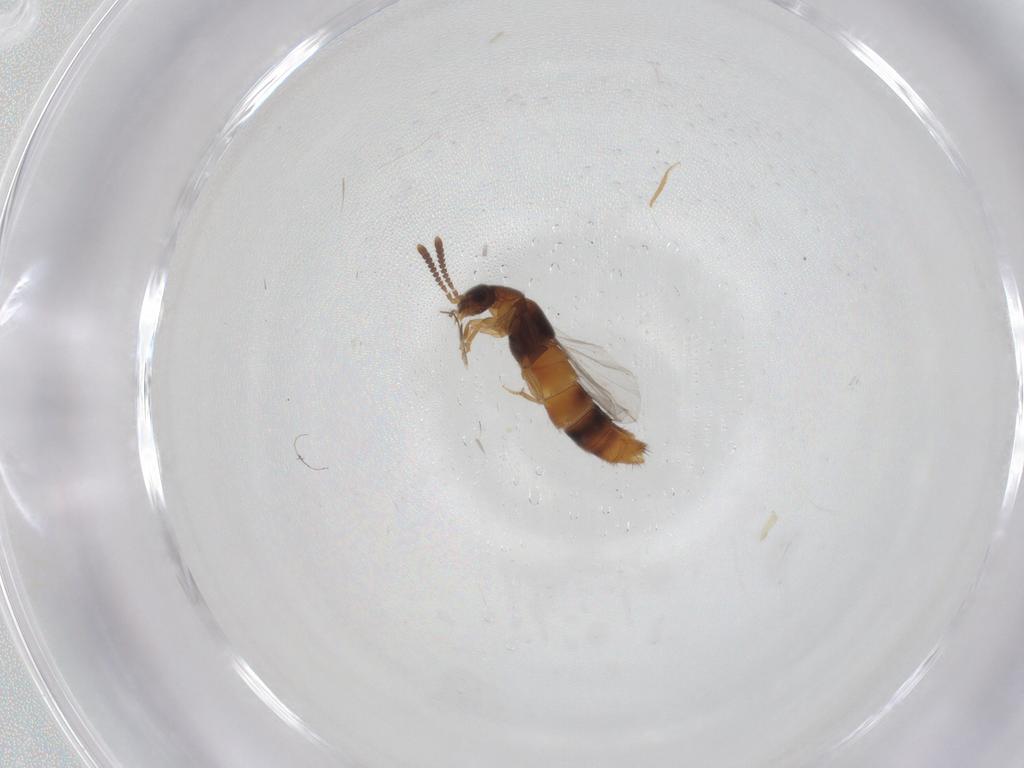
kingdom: Animalia
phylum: Arthropoda
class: Insecta
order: Coleoptera
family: Staphylinidae
